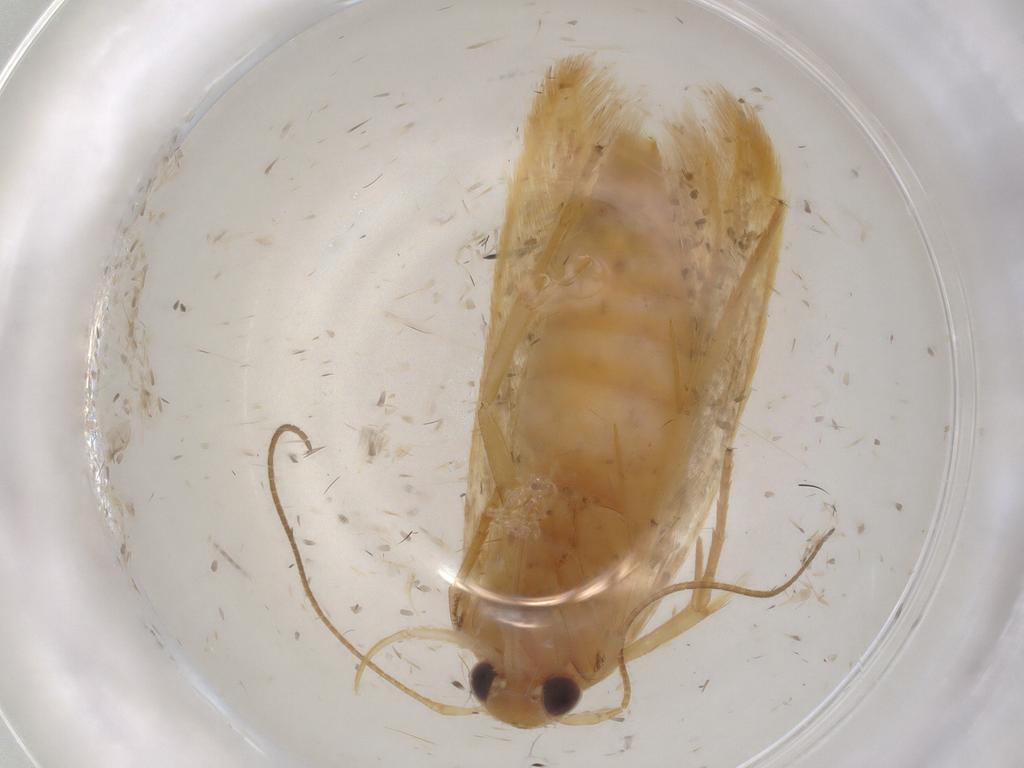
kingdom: Animalia
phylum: Arthropoda
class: Insecta
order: Lepidoptera
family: Stathmopodidae
